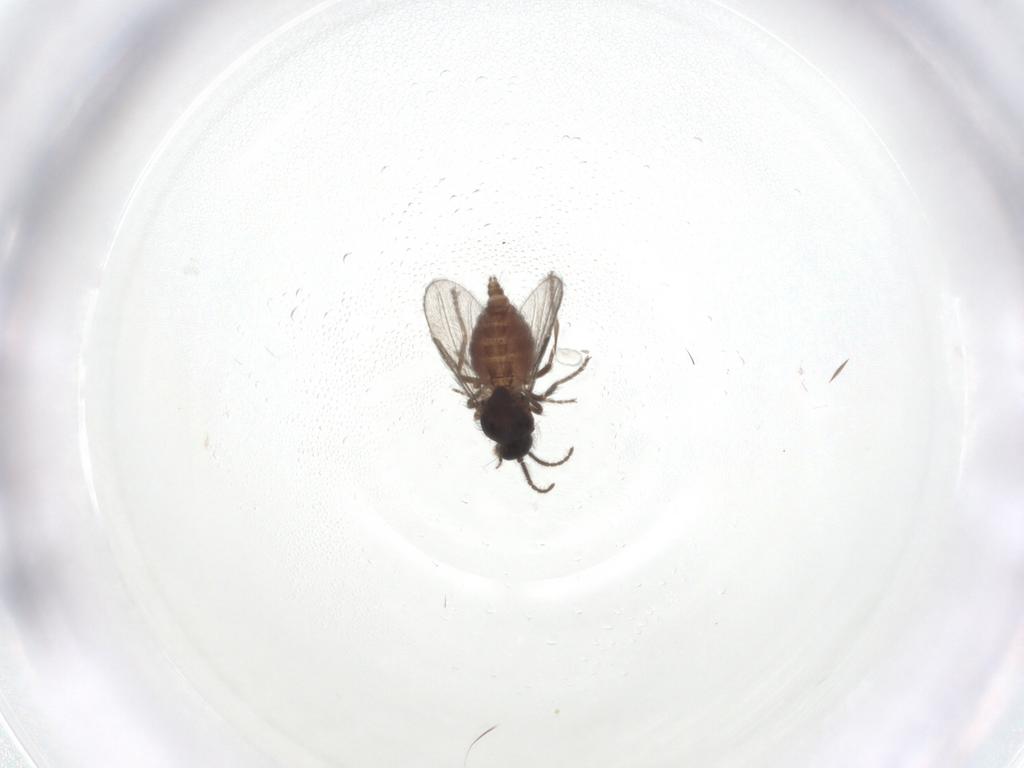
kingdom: Animalia
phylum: Arthropoda
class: Insecta
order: Diptera
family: Ceratopogonidae
